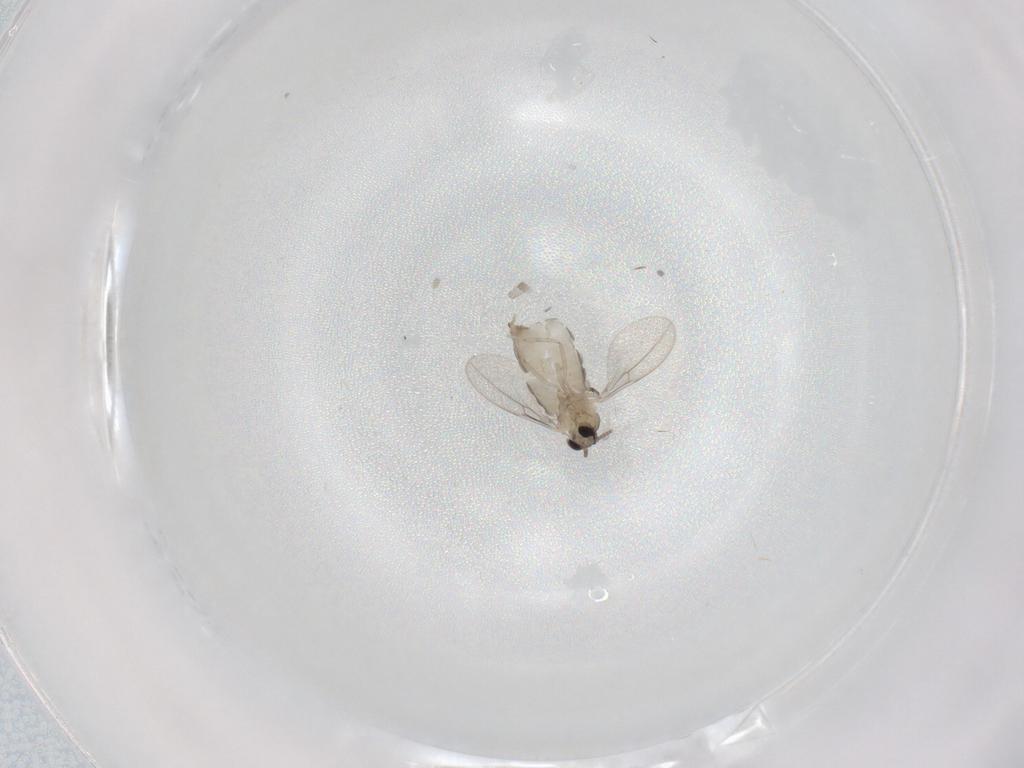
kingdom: Animalia
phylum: Arthropoda
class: Insecta
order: Diptera
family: Cecidomyiidae
